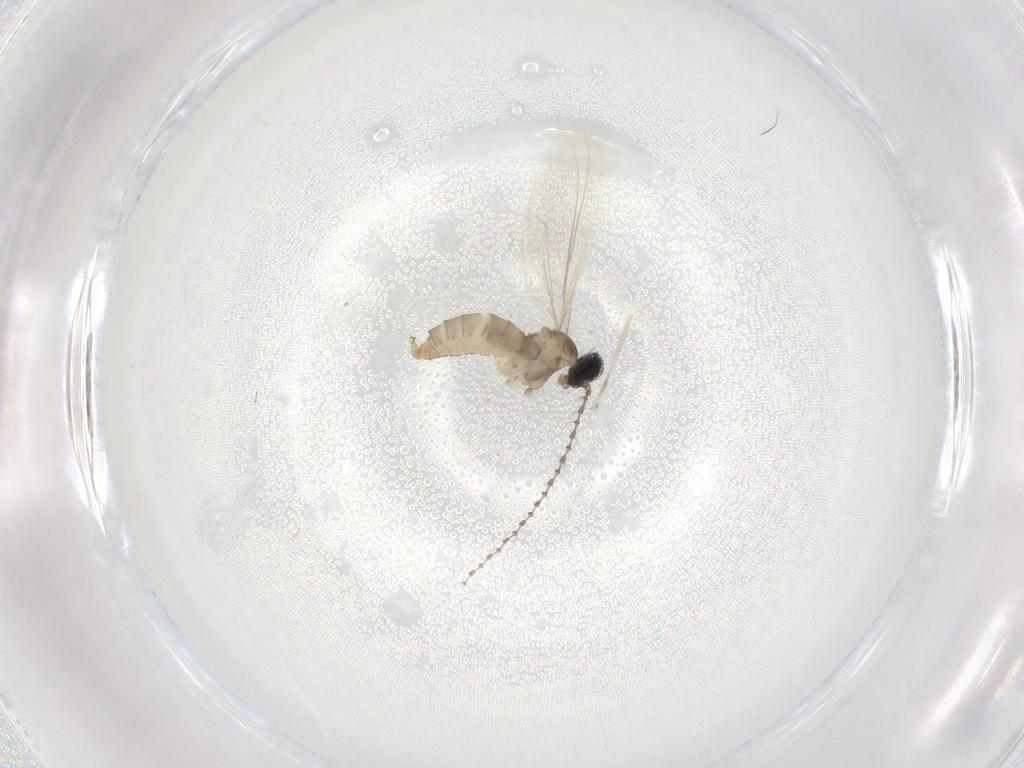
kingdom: Animalia
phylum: Arthropoda
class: Insecta
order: Diptera
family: Cecidomyiidae
